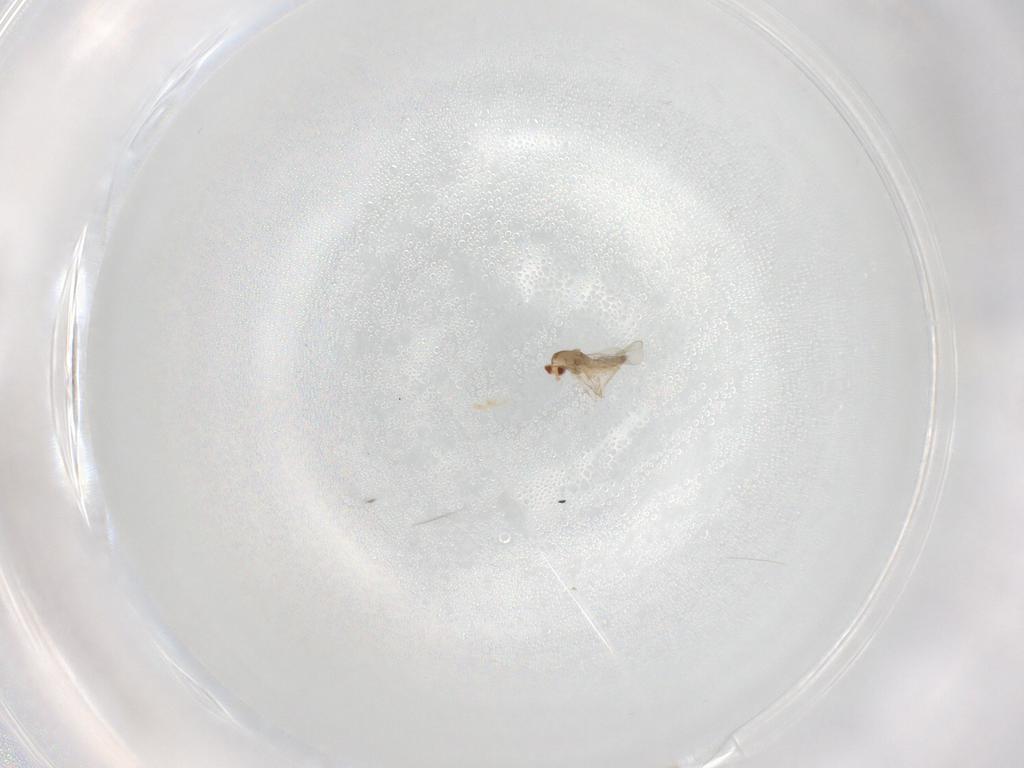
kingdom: Animalia
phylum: Arthropoda
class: Insecta
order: Diptera
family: Cecidomyiidae
